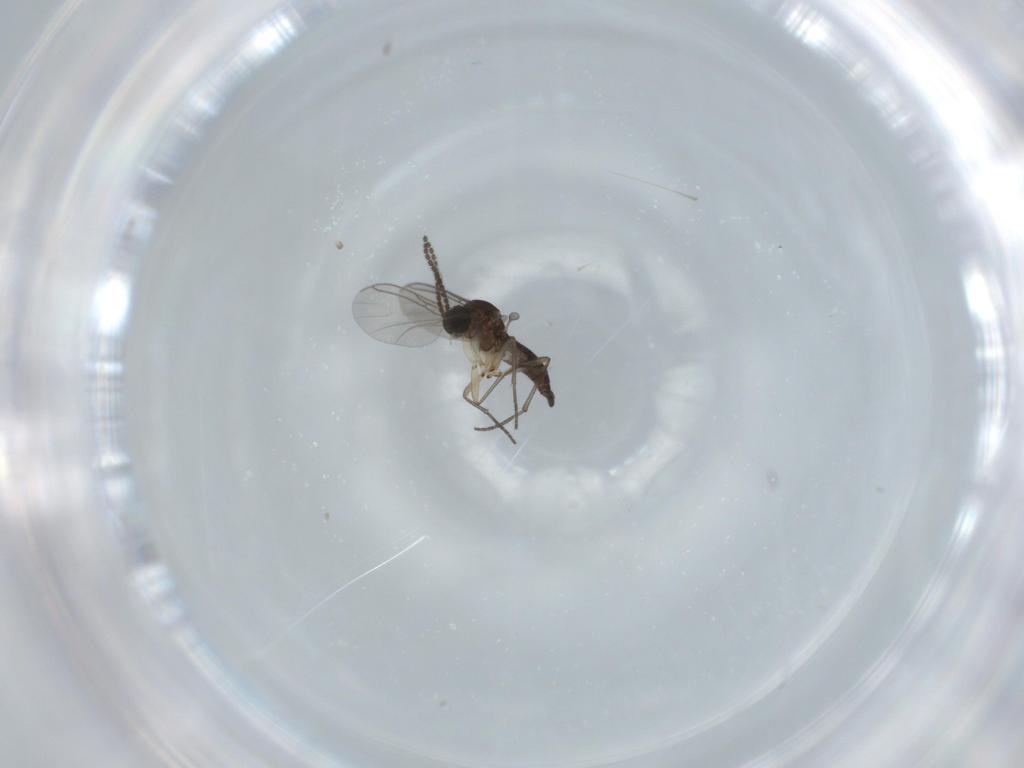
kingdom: Animalia
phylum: Arthropoda
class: Insecta
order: Diptera
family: Sciaridae
